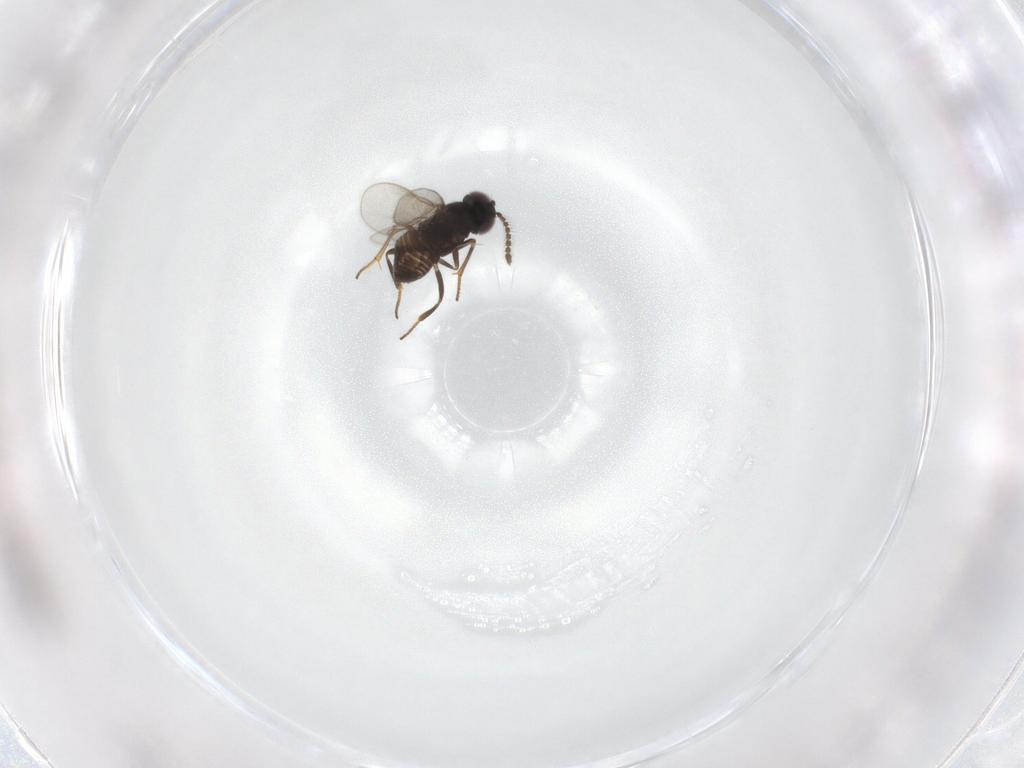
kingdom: Animalia
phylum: Arthropoda
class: Insecta
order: Hymenoptera
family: Encyrtidae
